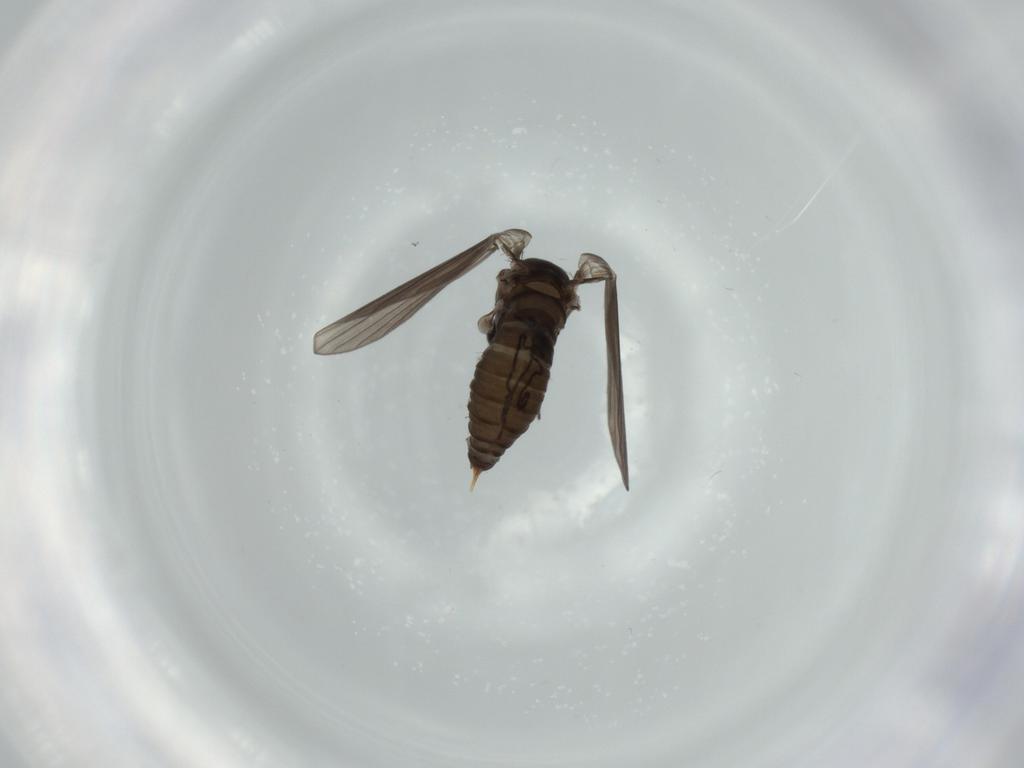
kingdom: Animalia
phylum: Arthropoda
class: Insecta
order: Diptera
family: Psychodidae
